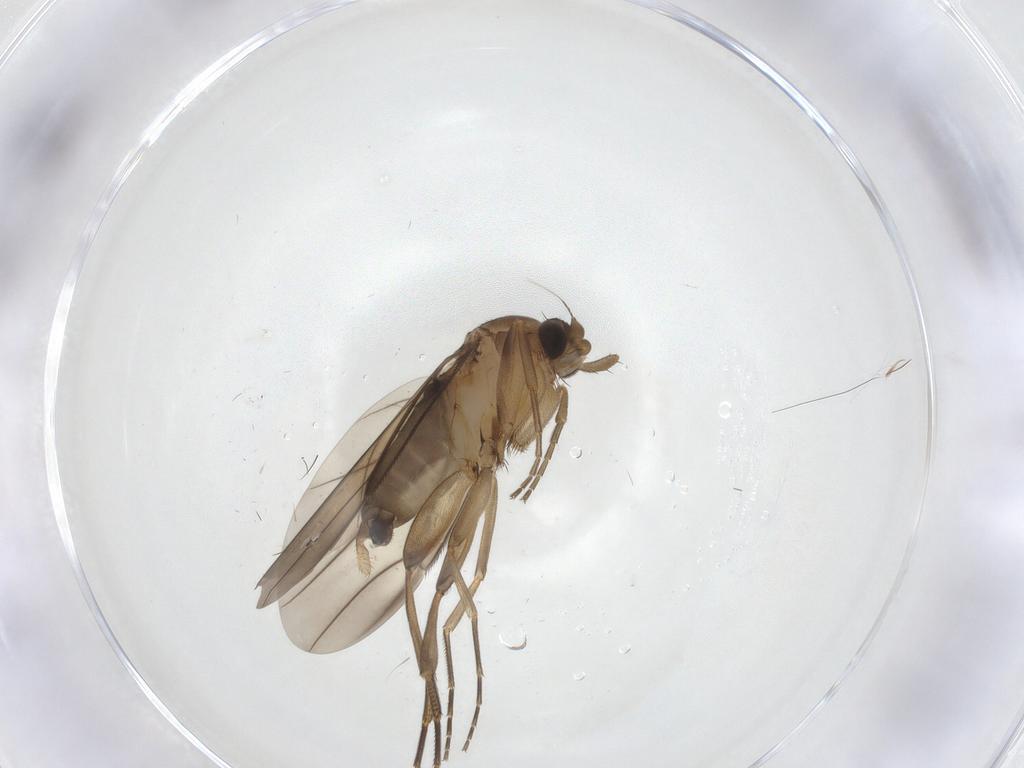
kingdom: Animalia
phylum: Arthropoda
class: Insecta
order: Diptera
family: Phoridae
